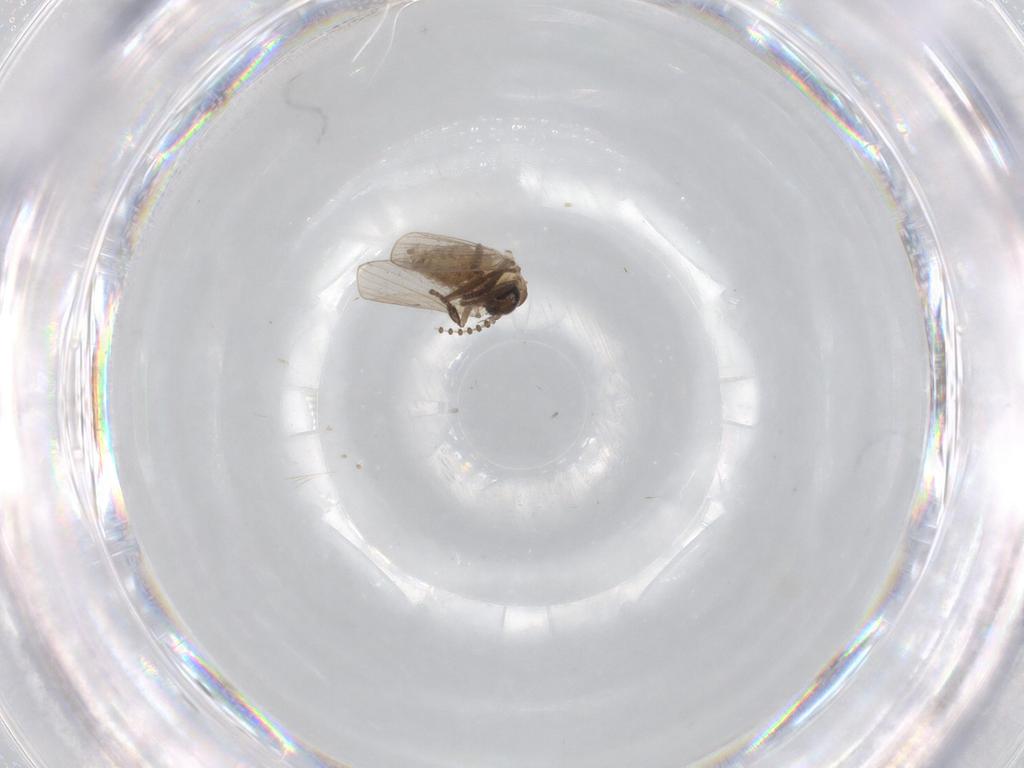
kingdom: Animalia
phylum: Arthropoda
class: Insecta
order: Diptera
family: Psychodidae
